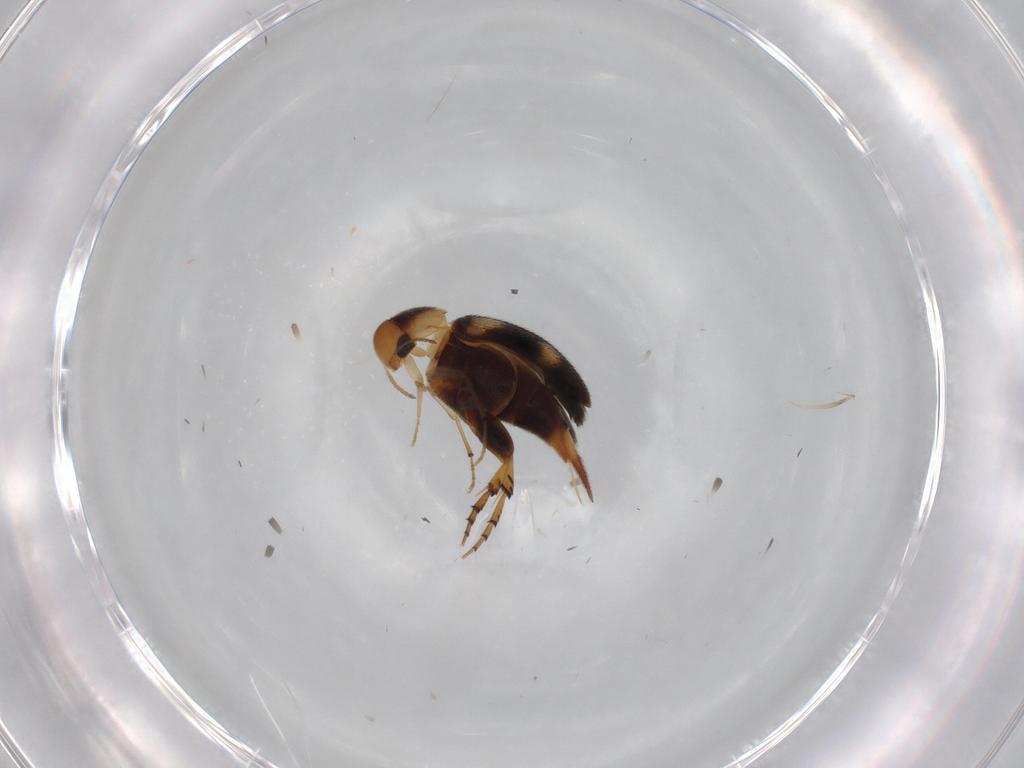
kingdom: Animalia
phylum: Arthropoda
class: Insecta
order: Coleoptera
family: Mordellidae
